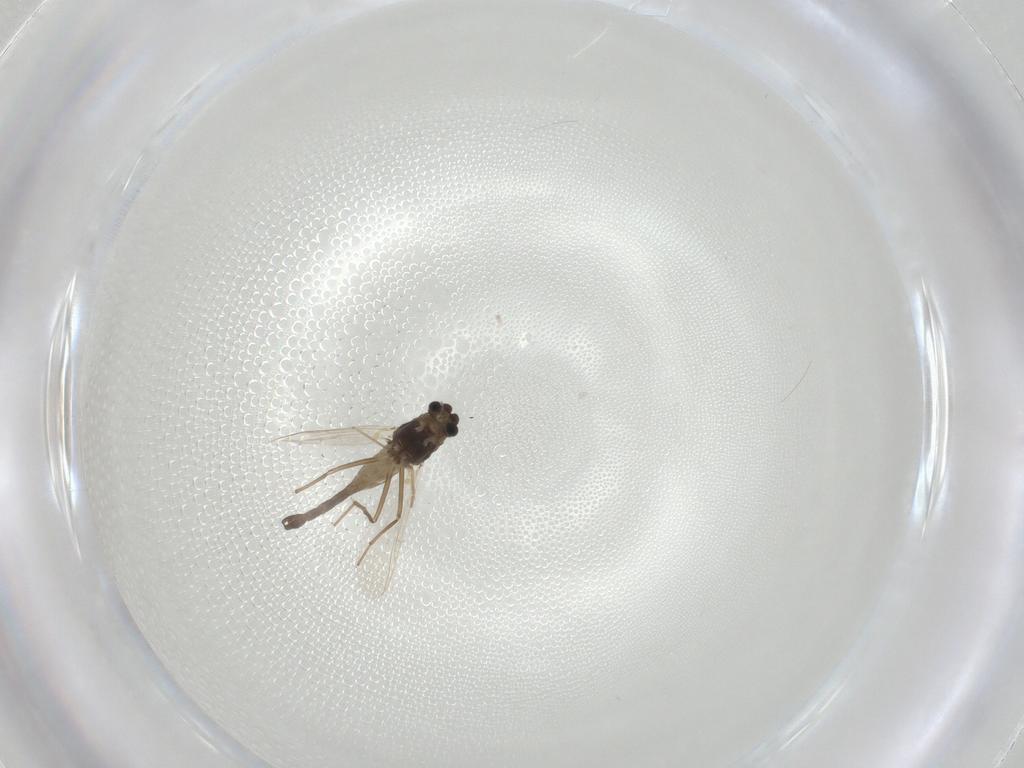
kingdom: Animalia
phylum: Arthropoda
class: Insecta
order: Diptera
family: Chironomidae
